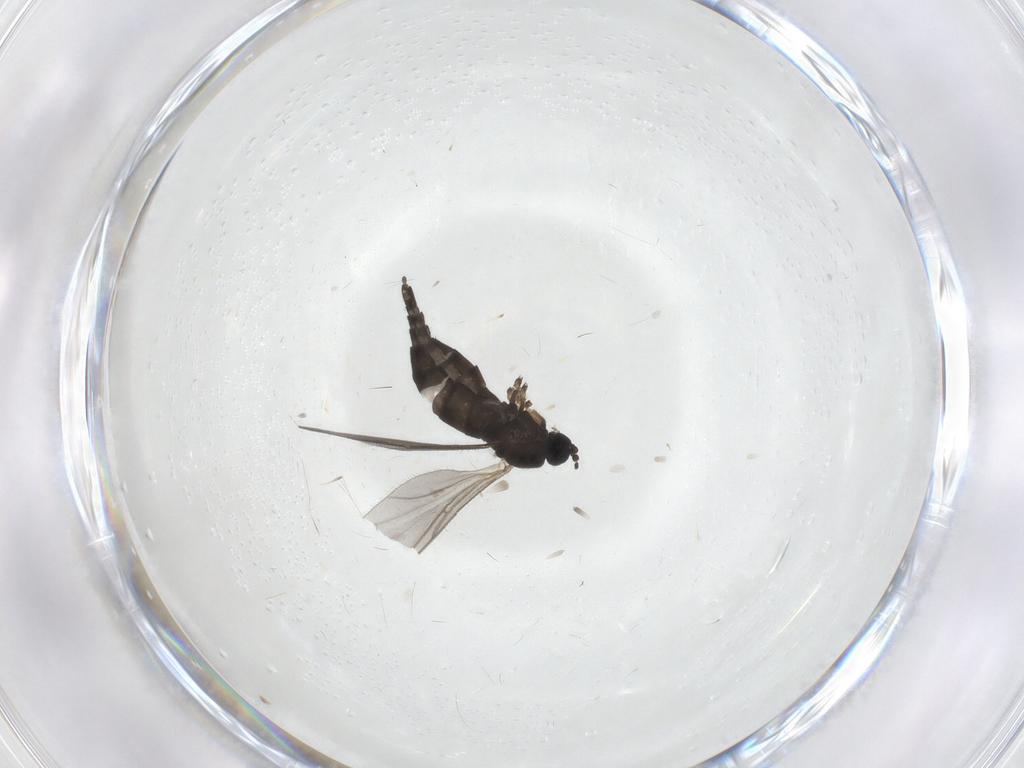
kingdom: Animalia
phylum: Arthropoda
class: Insecta
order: Diptera
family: Sciaridae
